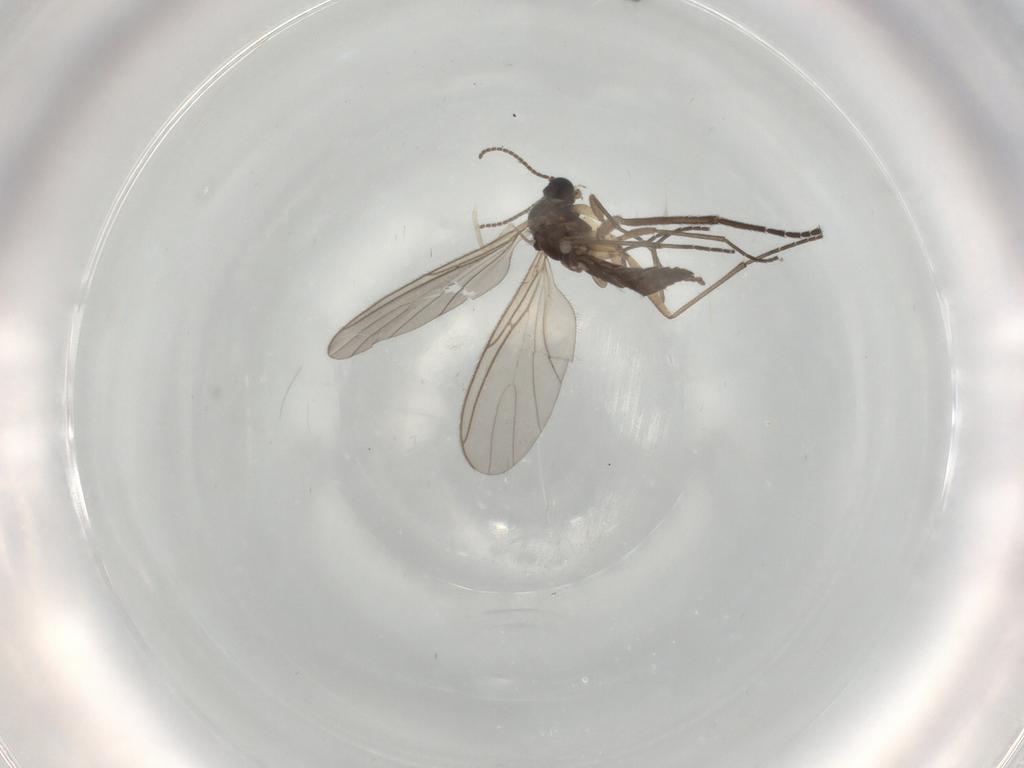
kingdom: Animalia
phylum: Arthropoda
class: Insecta
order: Diptera
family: Sciaridae
